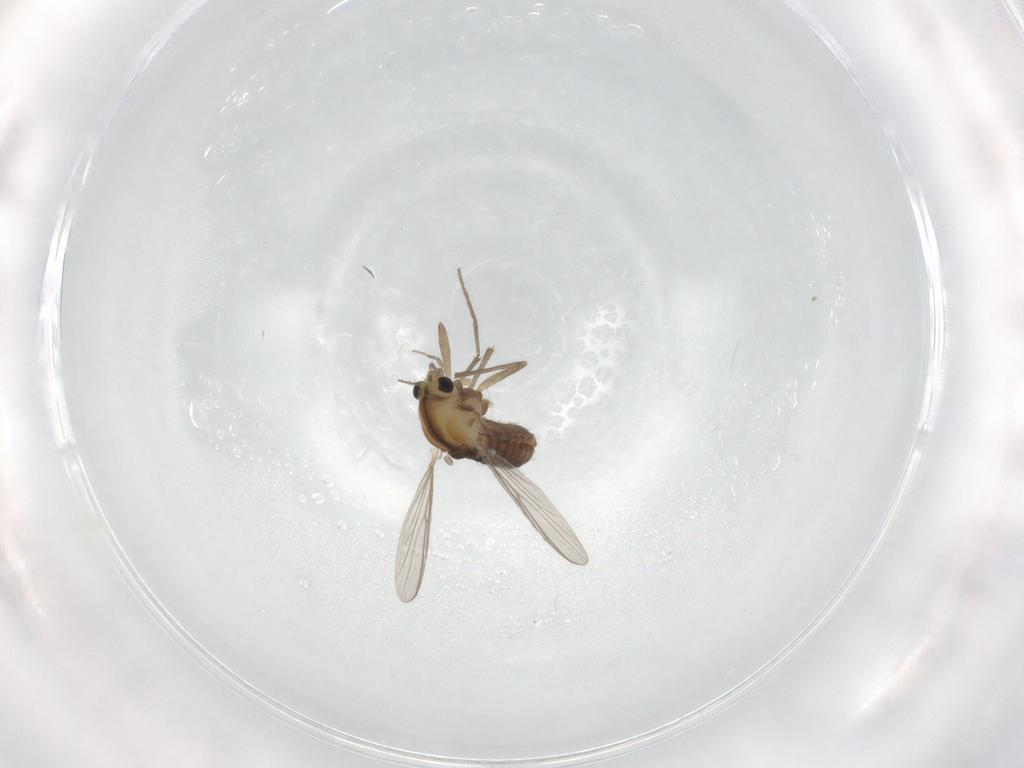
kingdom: Animalia
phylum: Arthropoda
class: Insecta
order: Diptera
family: Chironomidae
